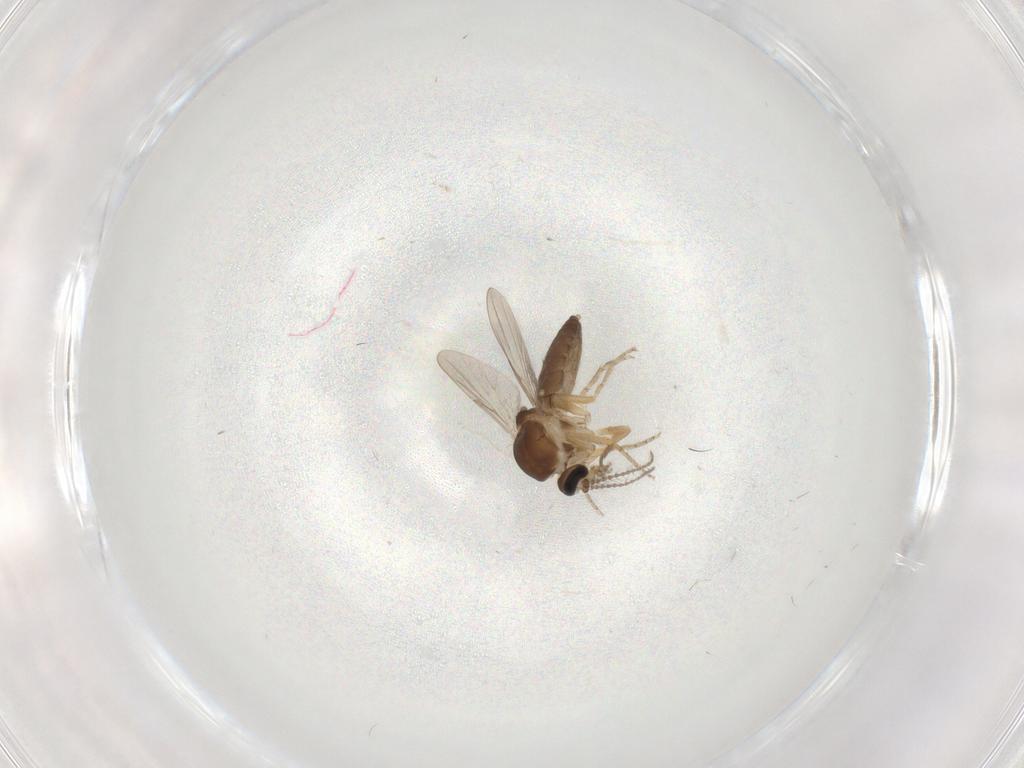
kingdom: Animalia
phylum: Arthropoda
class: Insecta
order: Diptera
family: Ceratopogonidae
